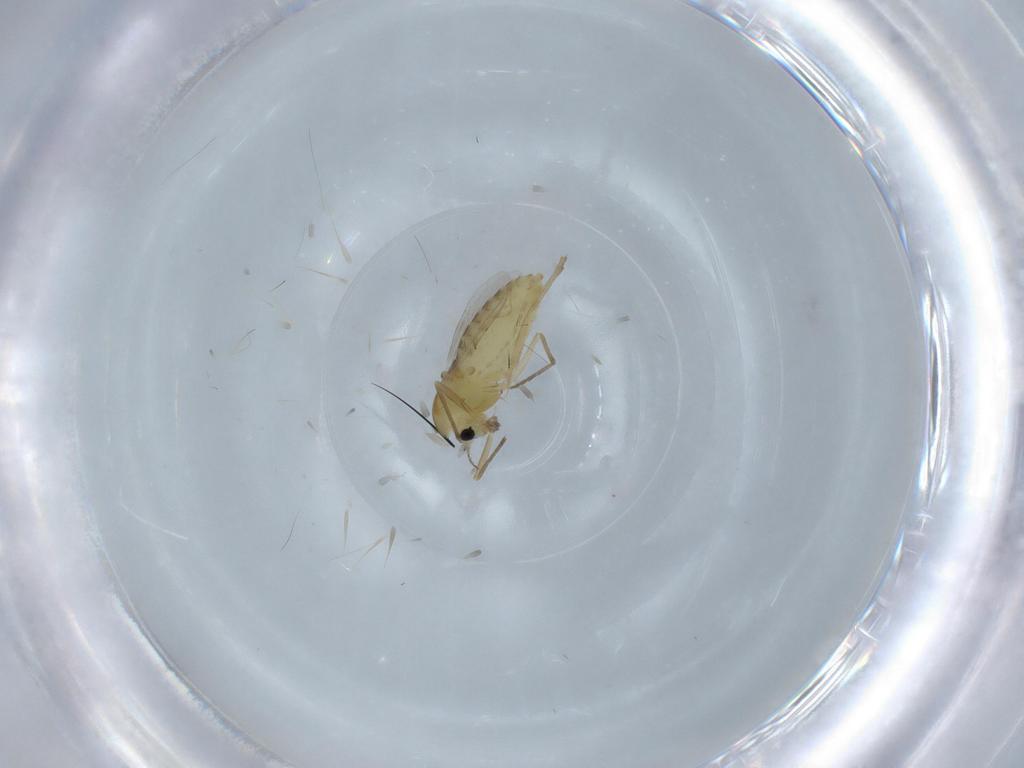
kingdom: Animalia
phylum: Arthropoda
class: Insecta
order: Diptera
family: Chironomidae
